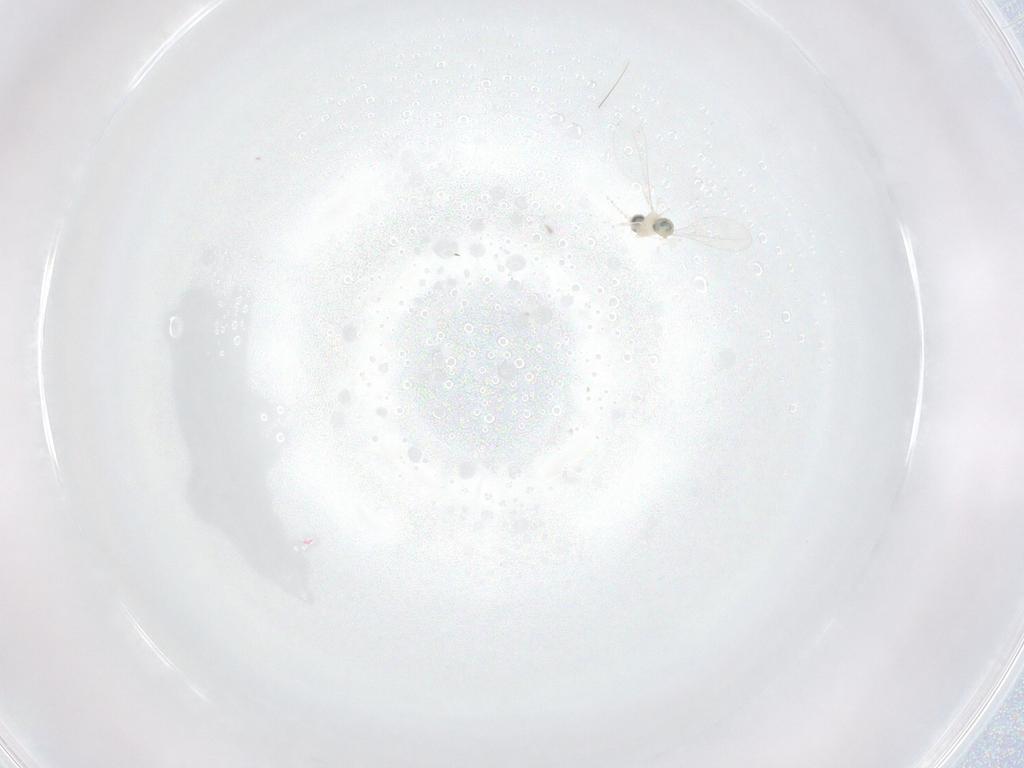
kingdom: Animalia
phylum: Arthropoda
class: Insecta
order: Diptera
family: Cecidomyiidae
